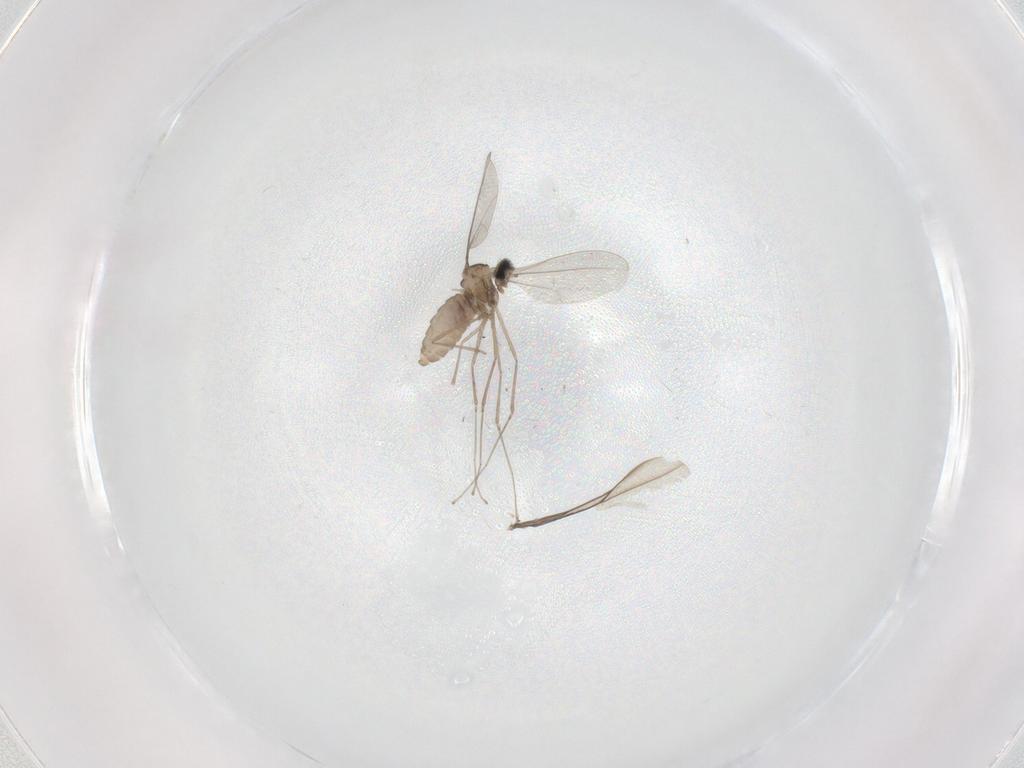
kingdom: Animalia
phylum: Arthropoda
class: Insecta
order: Diptera
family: Cecidomyiidae
